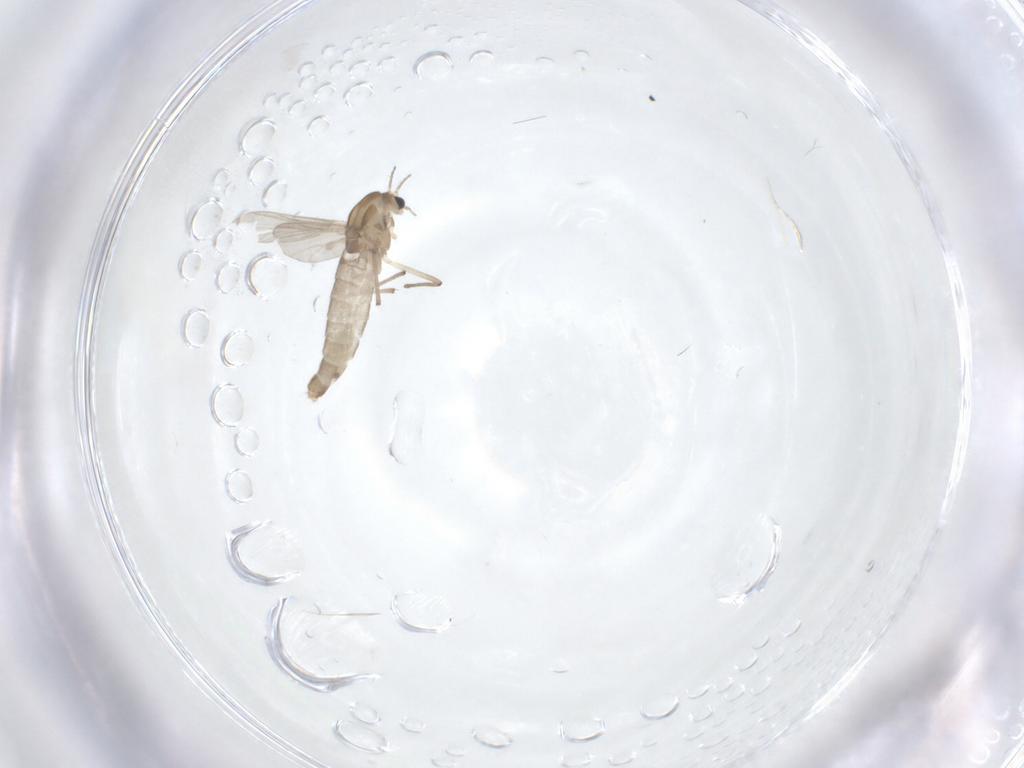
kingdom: Animalia
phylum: Arthropoda
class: Insecta
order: Diptera
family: Chironomidae
